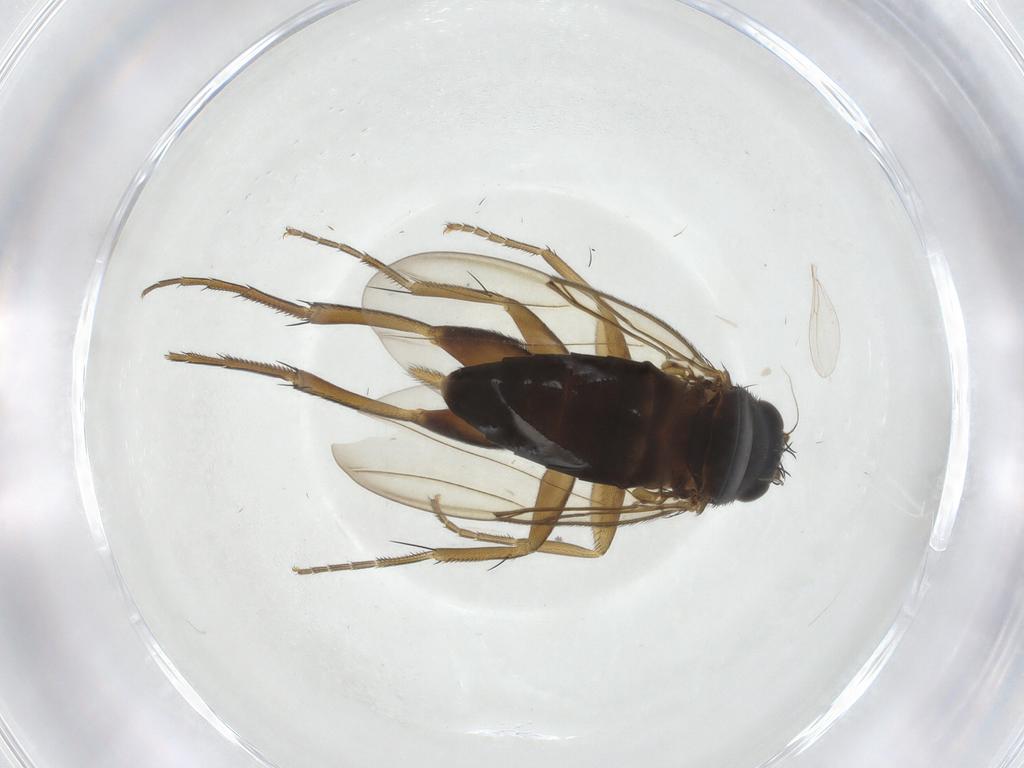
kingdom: Animalia
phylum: Arthropoda
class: Insecta
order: Diptera
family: Phoridae
